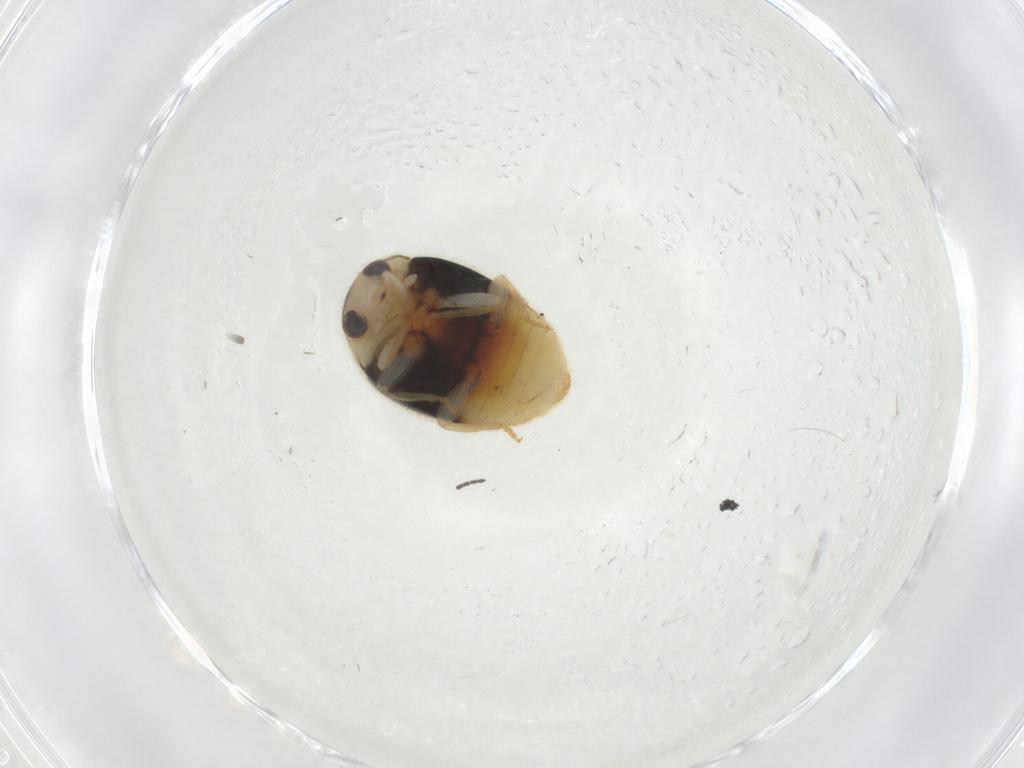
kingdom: Animalia
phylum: Arthropoda
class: Insecta
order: Coleoptera
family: Coccinellidae
